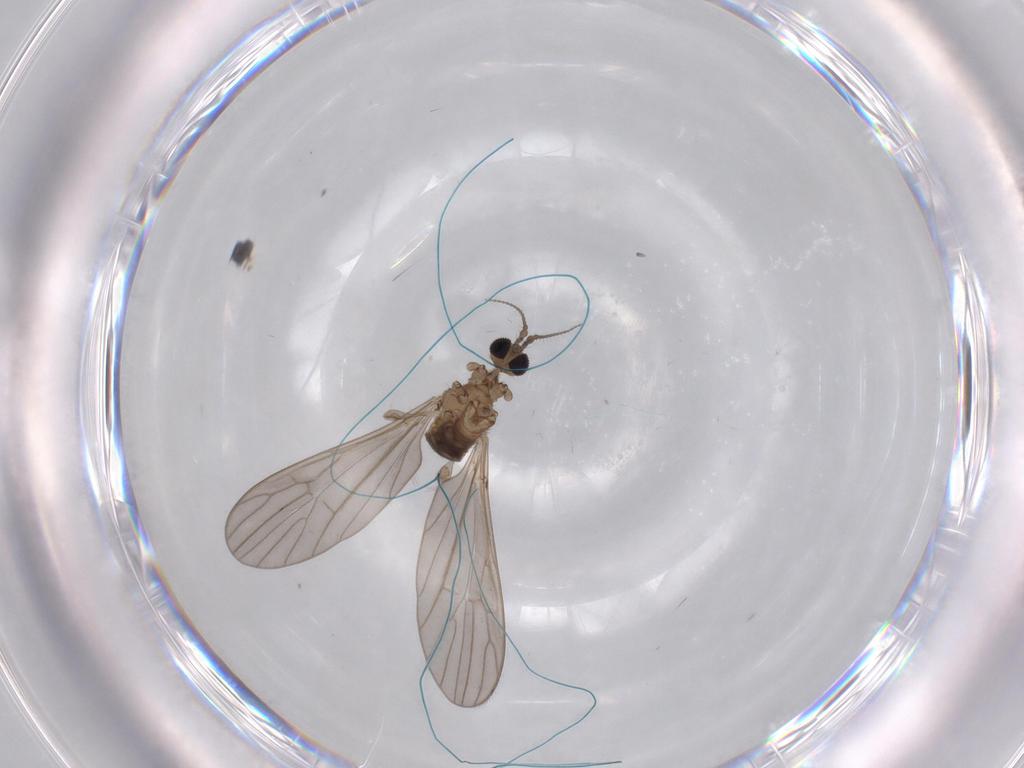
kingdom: Animalia
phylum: Arthropoda
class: Insecta
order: Diptera
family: Limoniidae
